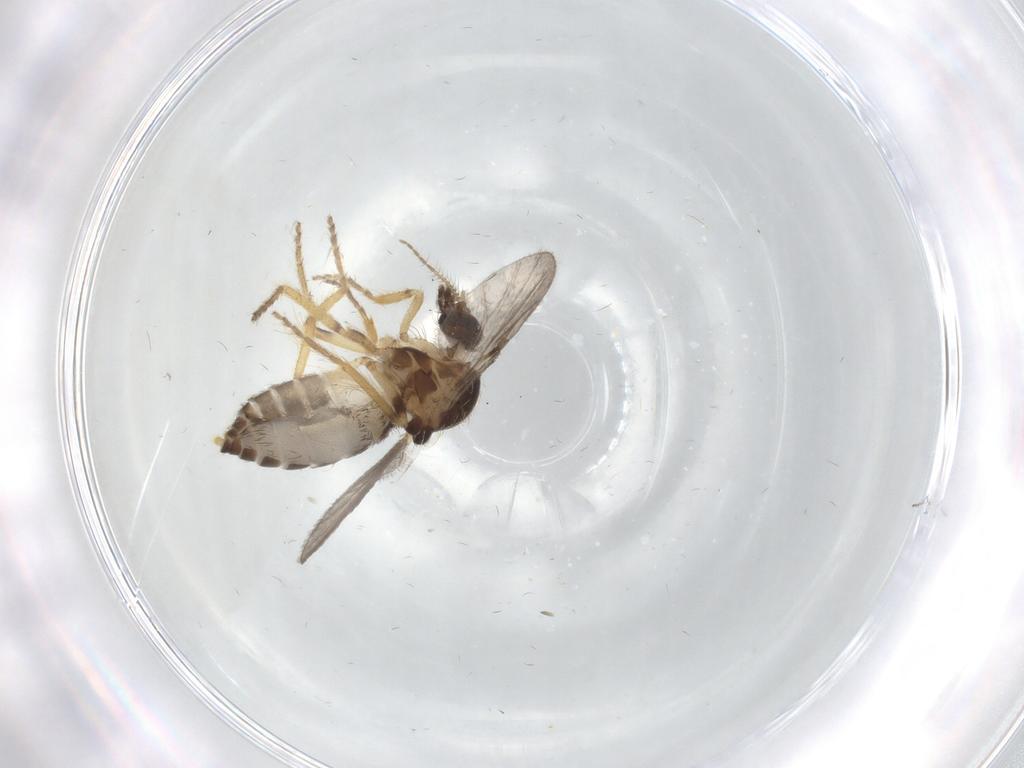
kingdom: Animalia
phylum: Arthropoda
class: Insecta
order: Diptera
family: Ceratopogonidae
